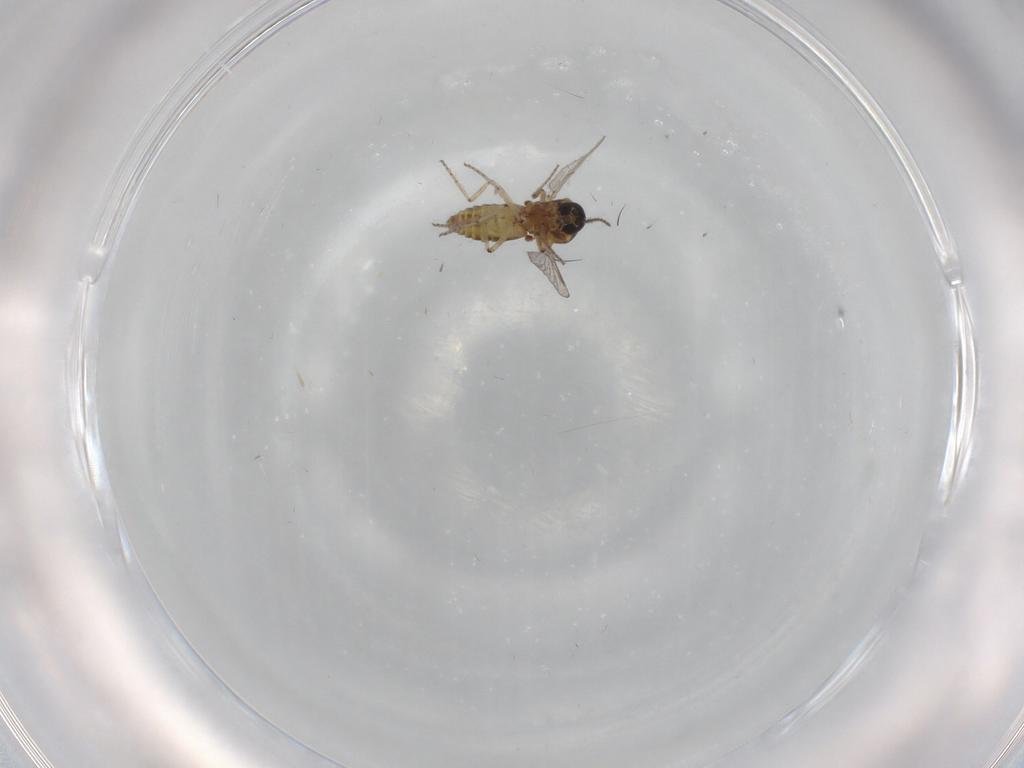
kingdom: Animalia
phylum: Arthropoda
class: Insecta
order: Diptera
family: Ceratopogonidae
